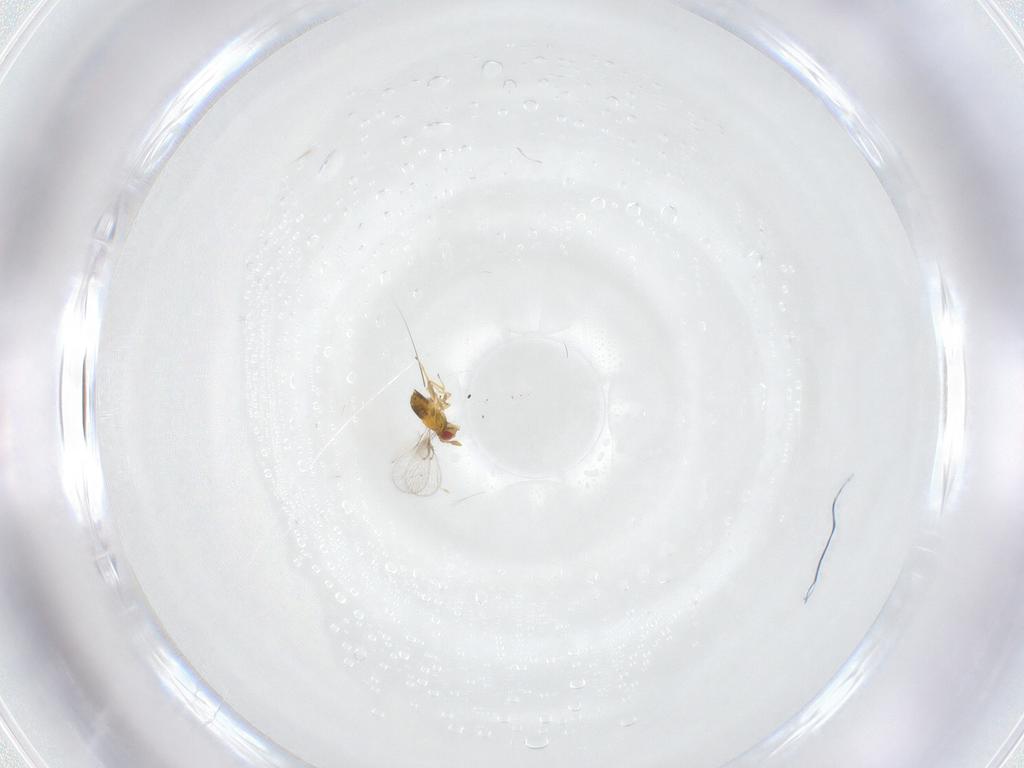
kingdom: Animalia
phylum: Arthropoda
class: Insecta
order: Hymenoptera
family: Trichogrammatidae
